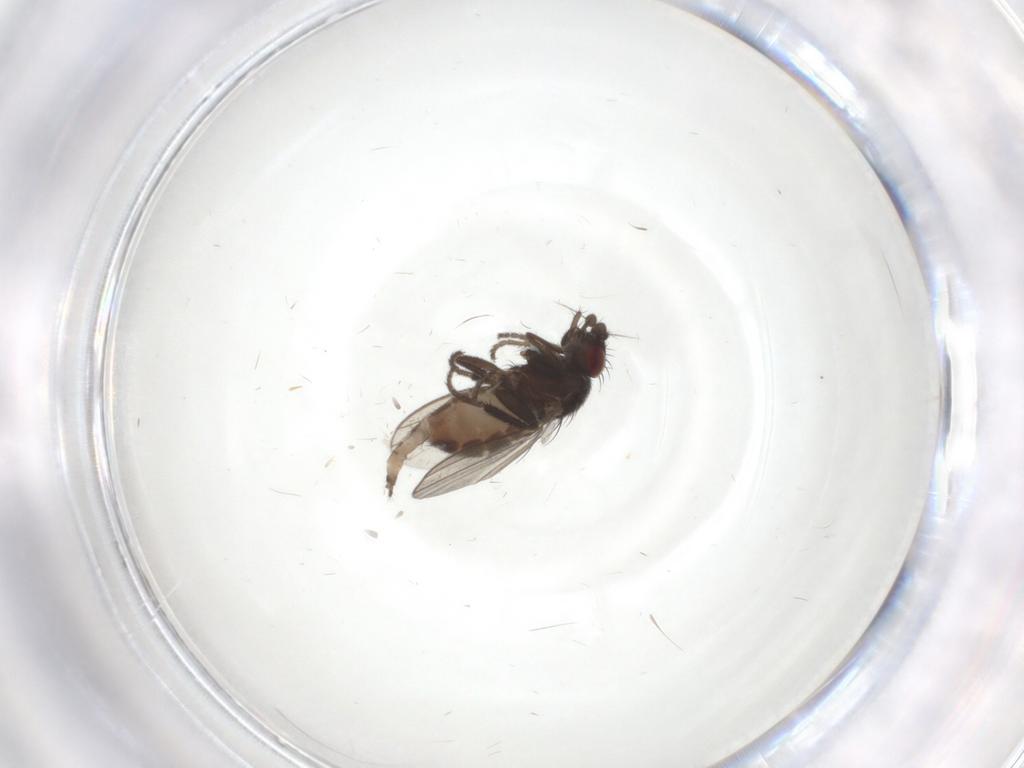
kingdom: Animalia
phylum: Arthropoda
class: Insecta
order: Diptera
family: Milichiidae
